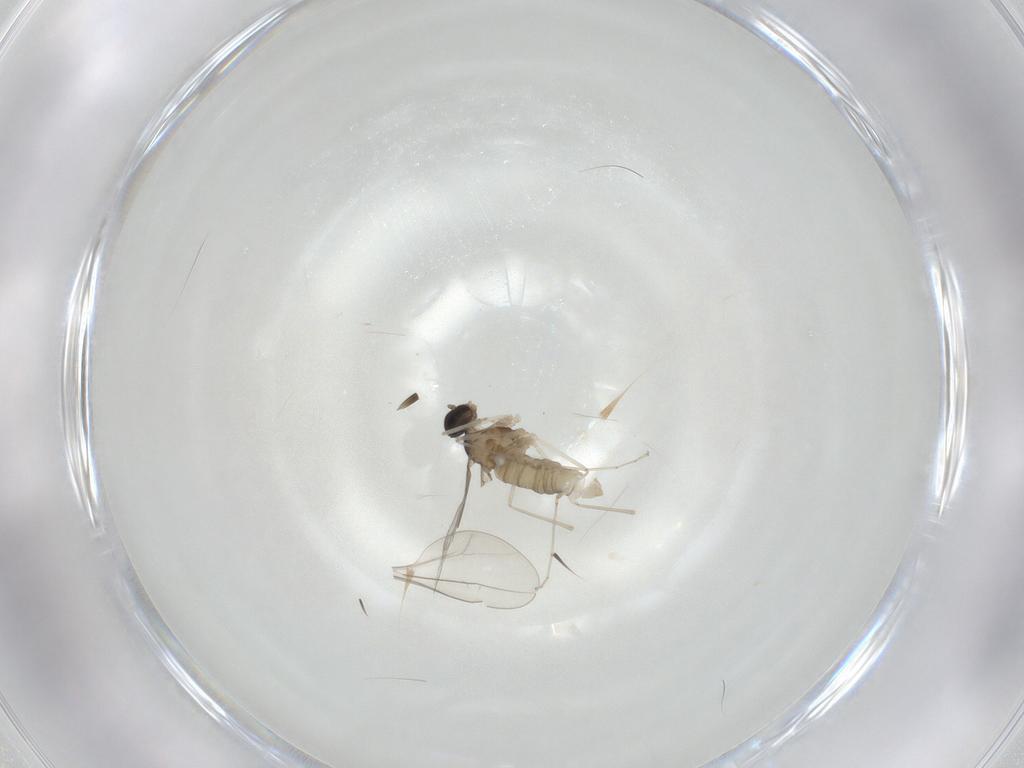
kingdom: Animalia
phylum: Arthropoda
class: Insecta
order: Diptera
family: Cecidomyiidae
